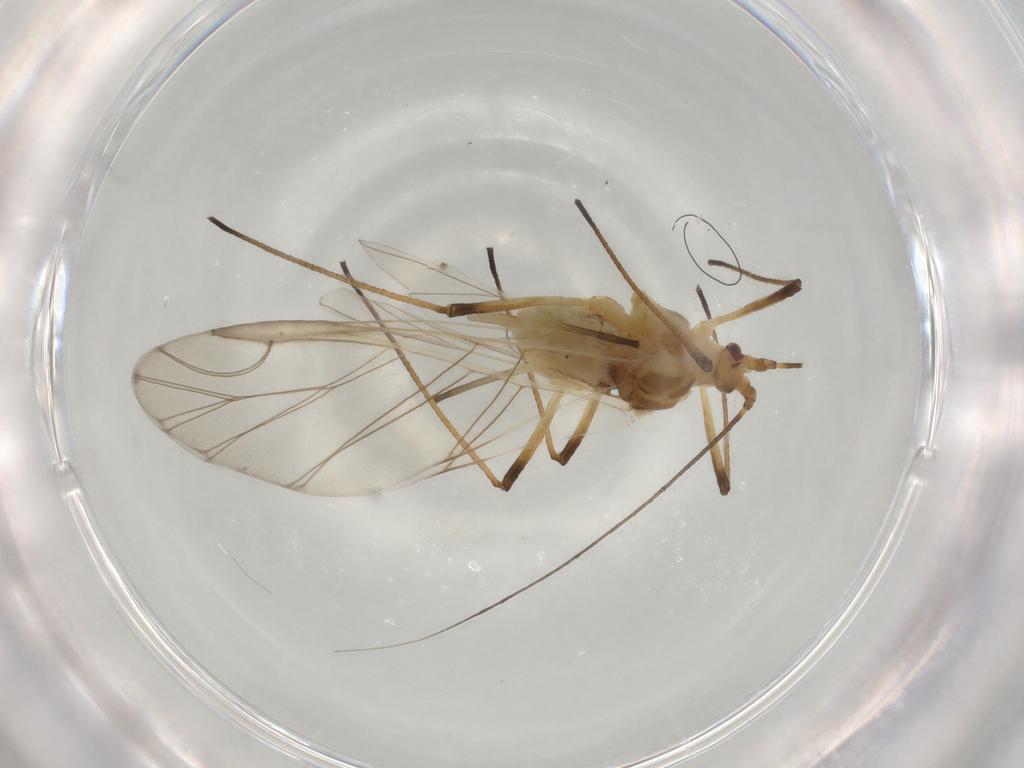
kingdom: Animalia
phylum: Arthropoda
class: Insecta
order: Hemiptera
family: Aphididae
